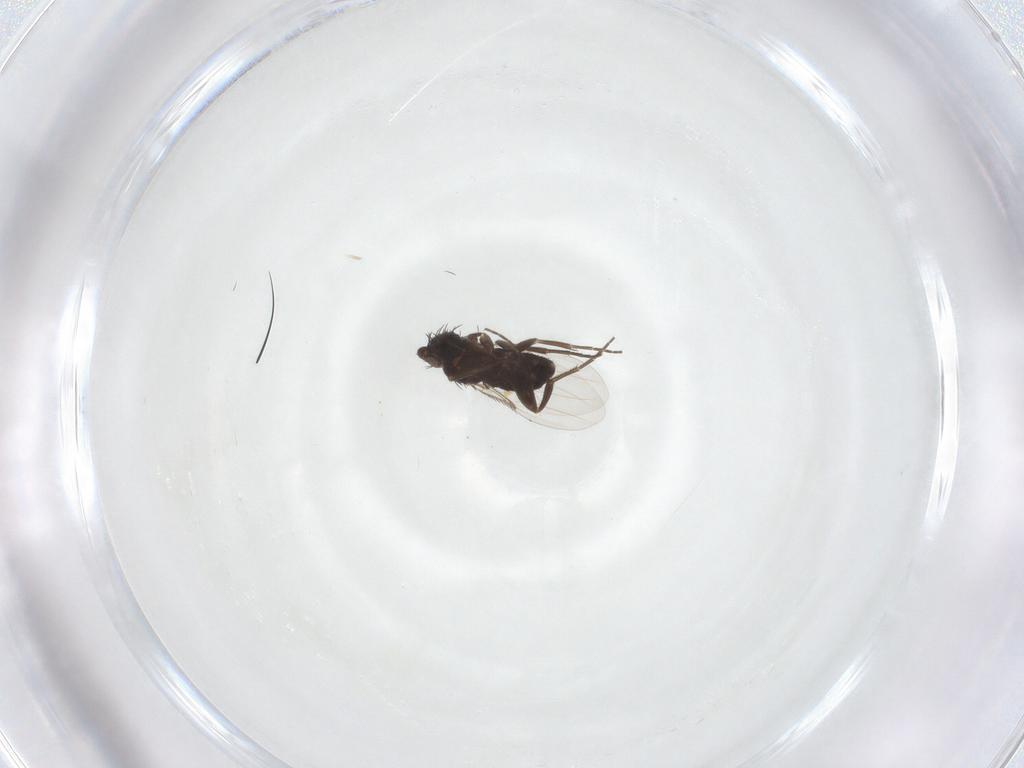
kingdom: Animalia
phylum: Arthropoda
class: Insecta
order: Diptera
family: Phoridae
